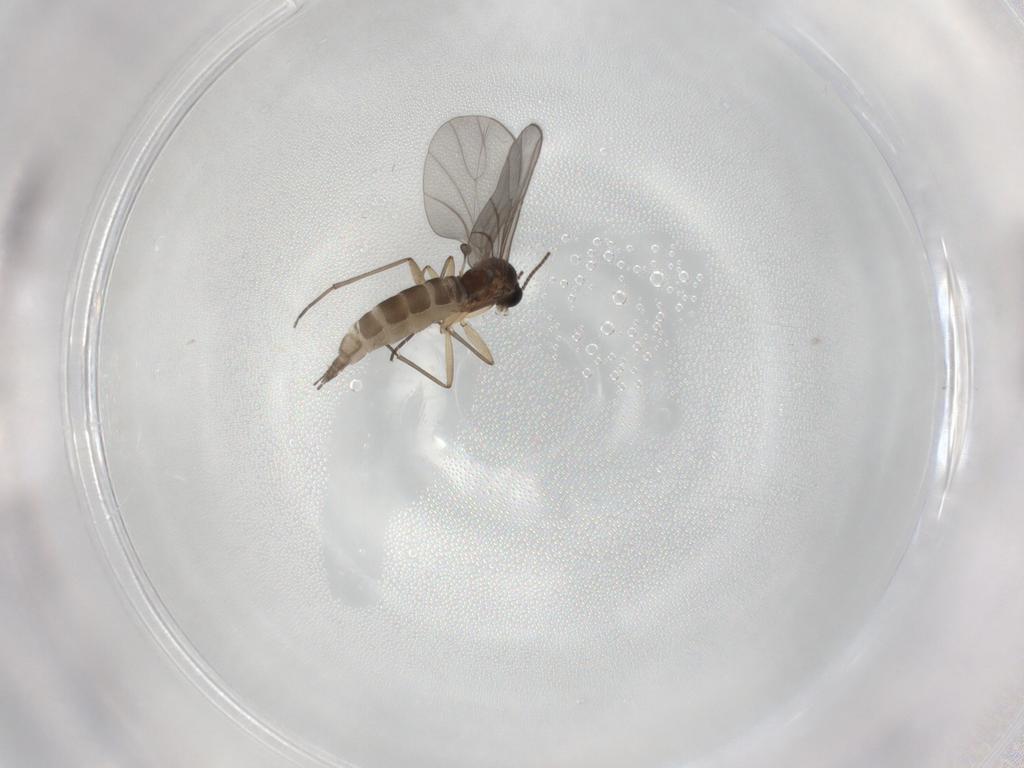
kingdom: Animalia
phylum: Arthropoda
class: Insecta
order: Diptera
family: Sciaridae
